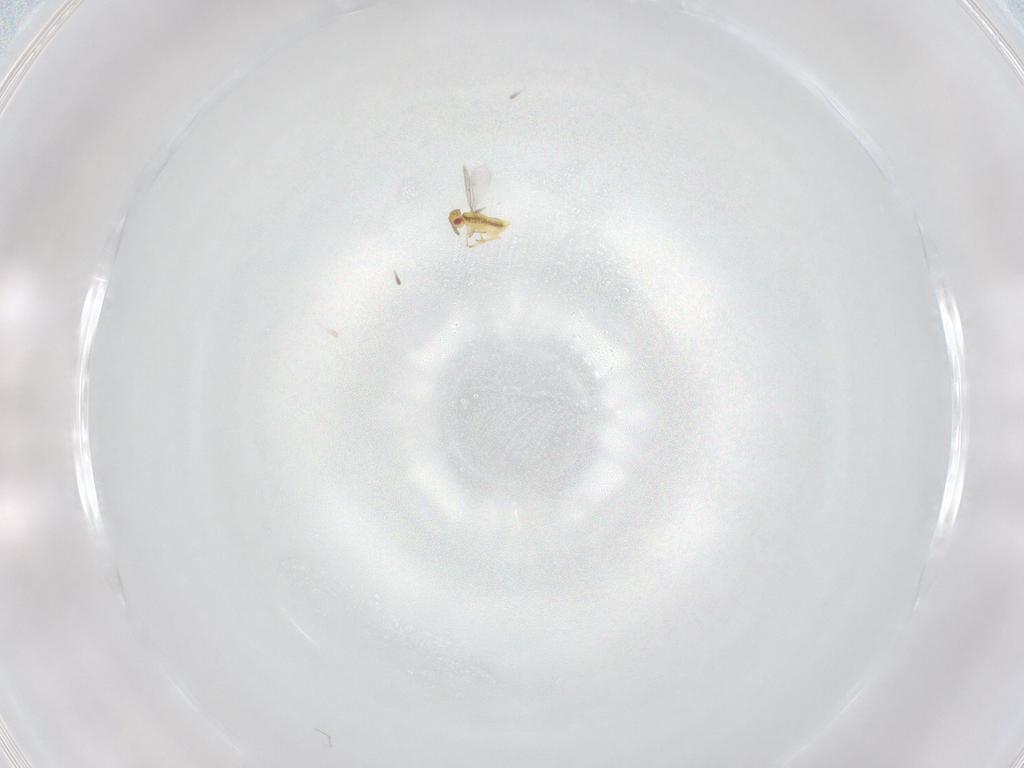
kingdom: Animalia
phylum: Arthropoda
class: Insecta
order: Hymenoptera
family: Aphelinidae
